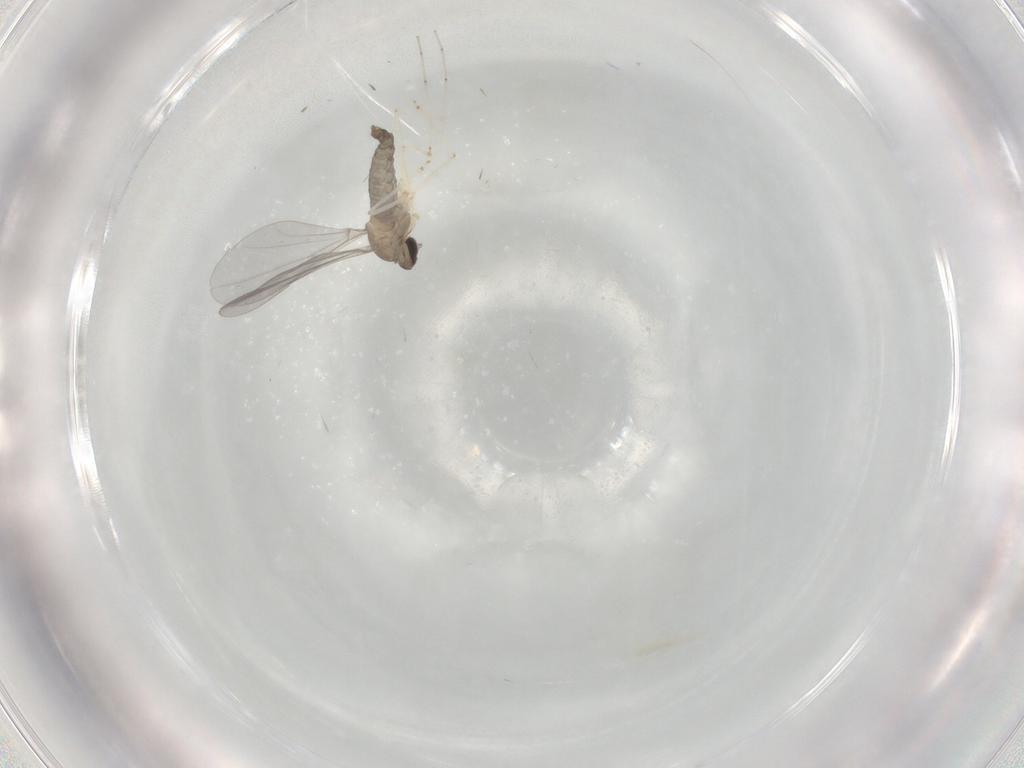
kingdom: Animalia
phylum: Arthropoda
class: Insecta
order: Diptera
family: Cecidomyiidae
